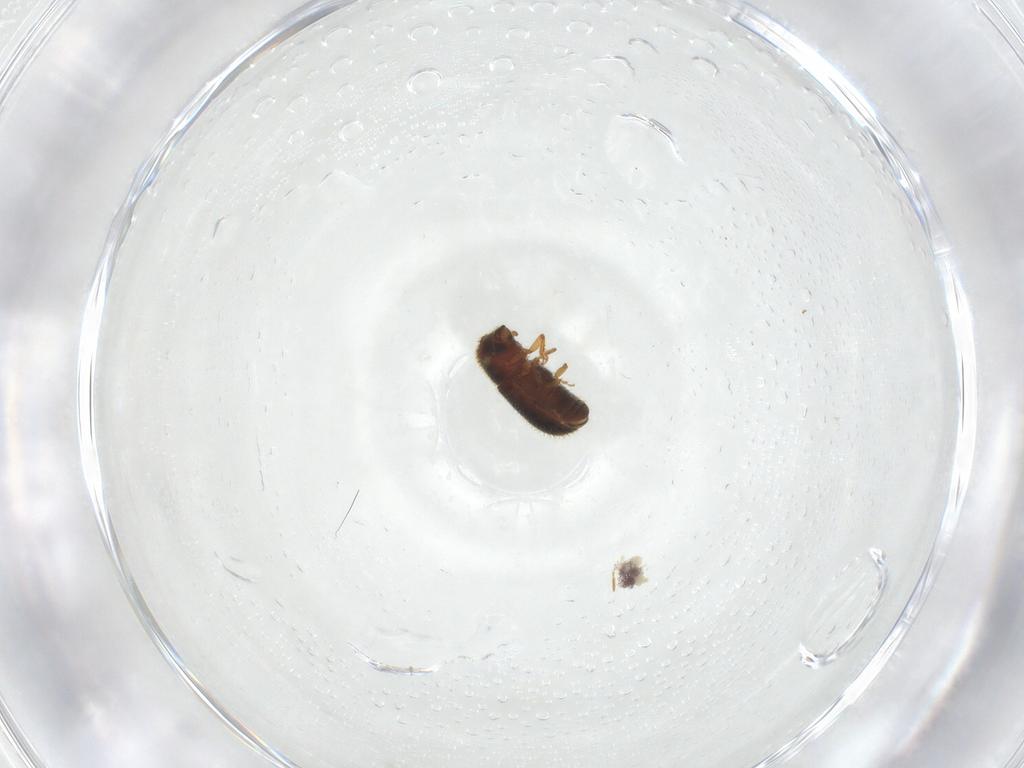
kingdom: Animalia
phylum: Arthropoda
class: Insecta
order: Coleoptera
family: Curculionidae
